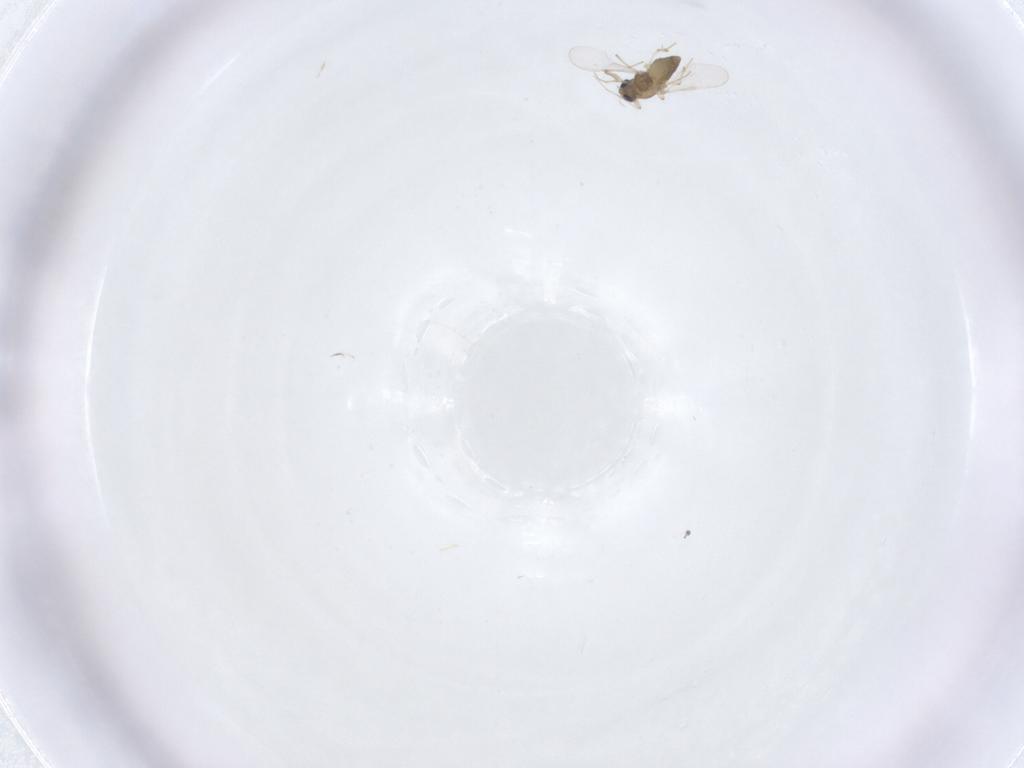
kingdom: Animalia
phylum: Arthropoda
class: Insecta
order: Diptera
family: Chironomidae
